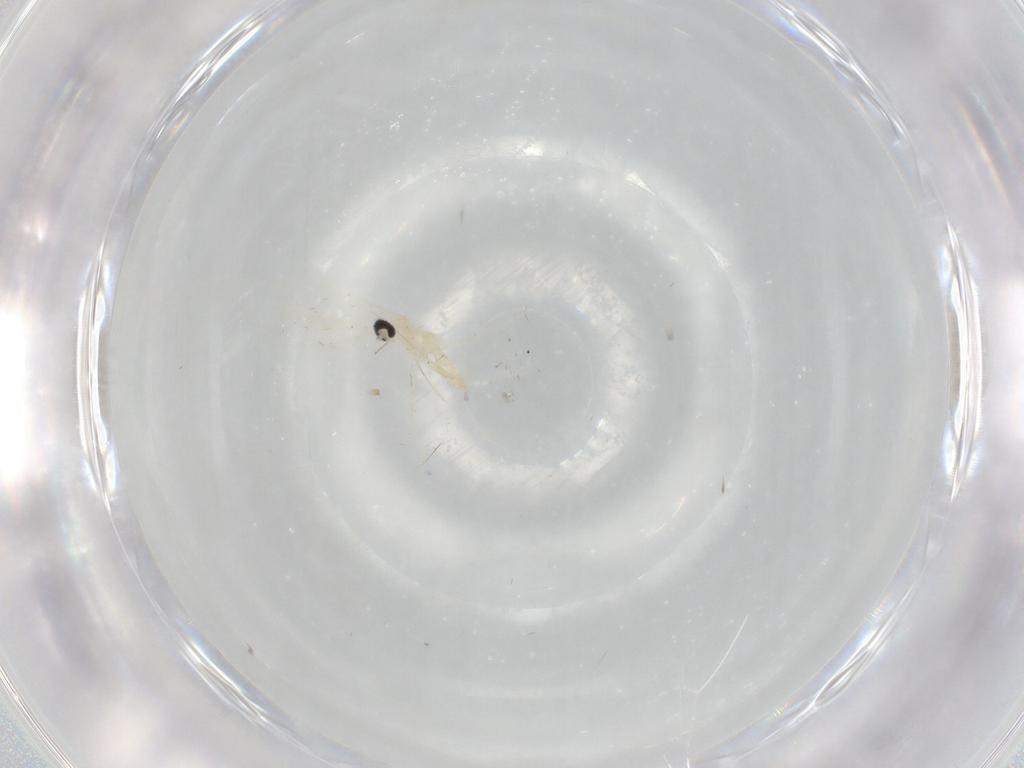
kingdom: Animalia
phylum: Arthropoda
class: Insecta
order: Diptera
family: Cecidomyiidae
